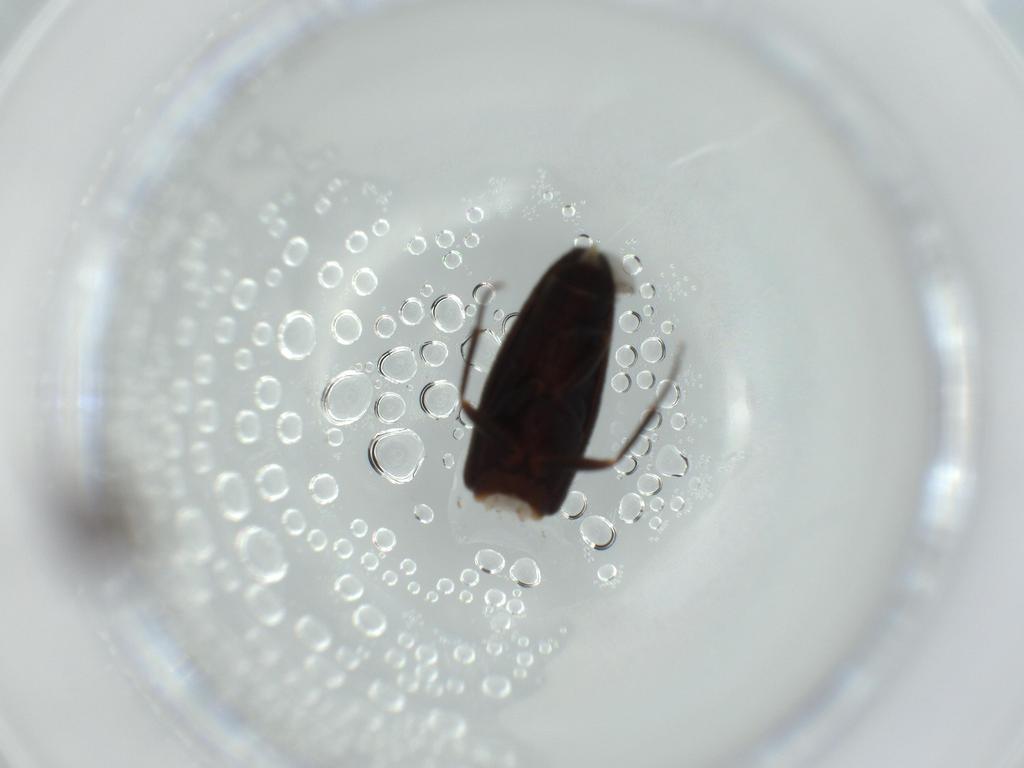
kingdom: Animalia
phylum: Arthropoda
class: Insecta
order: Coleoptera
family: Melandryidae
